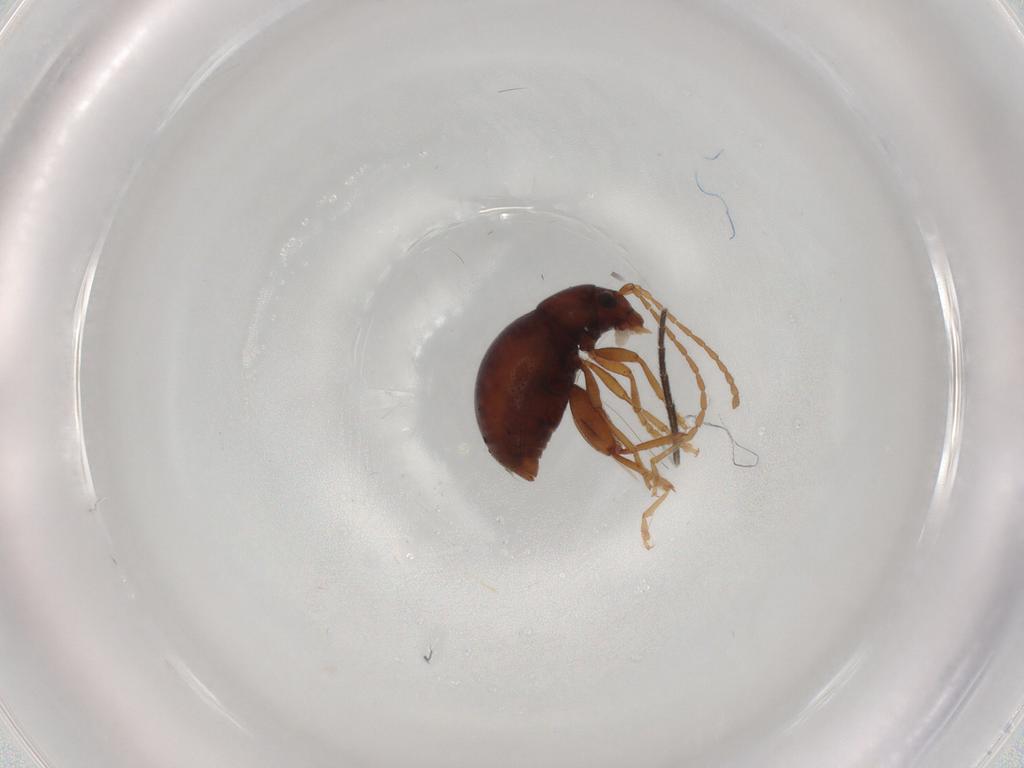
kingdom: Animalia
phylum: Arthropoda
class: Insecta
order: Coleoptera
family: Chrysomelidae
